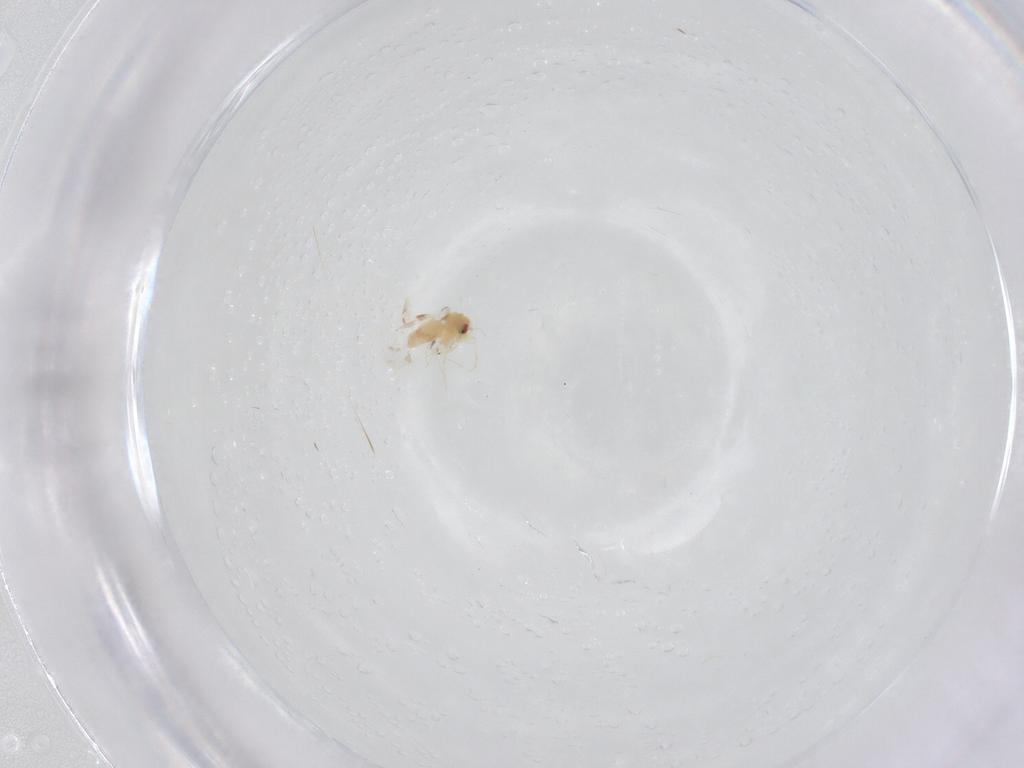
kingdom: Animalia
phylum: Arthropoda
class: Insecta
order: Hemiptera
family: Aleyrodidae
